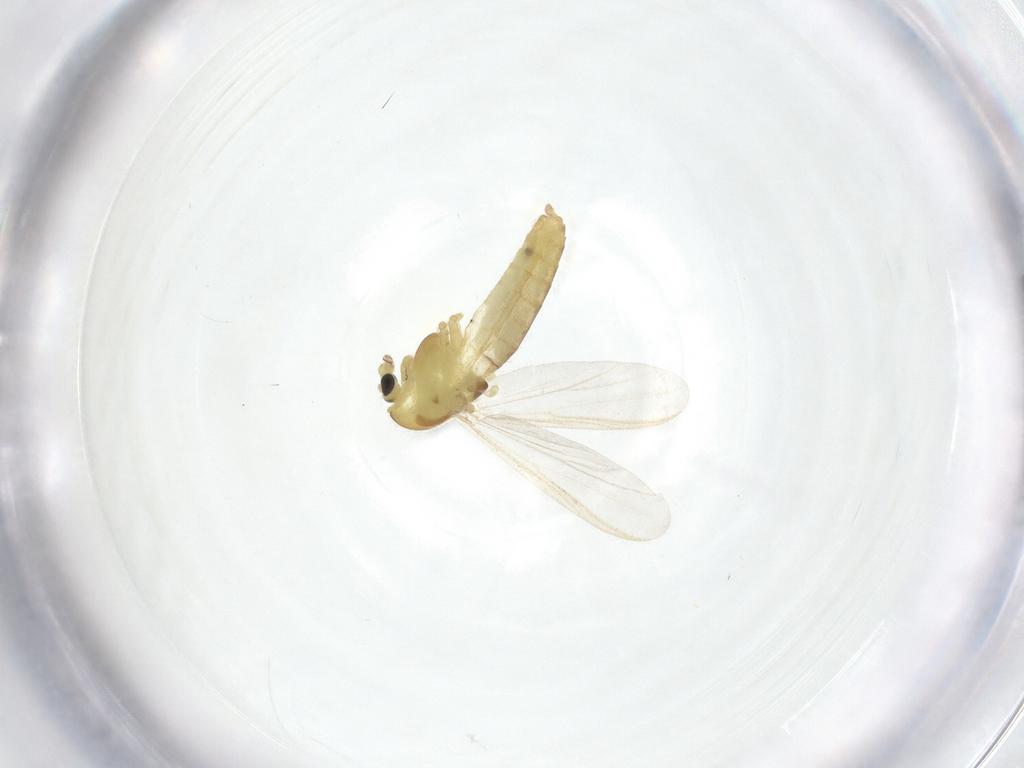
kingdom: Animalia
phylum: Arthropoda
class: Insecta
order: Diptera
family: Chironomidae
